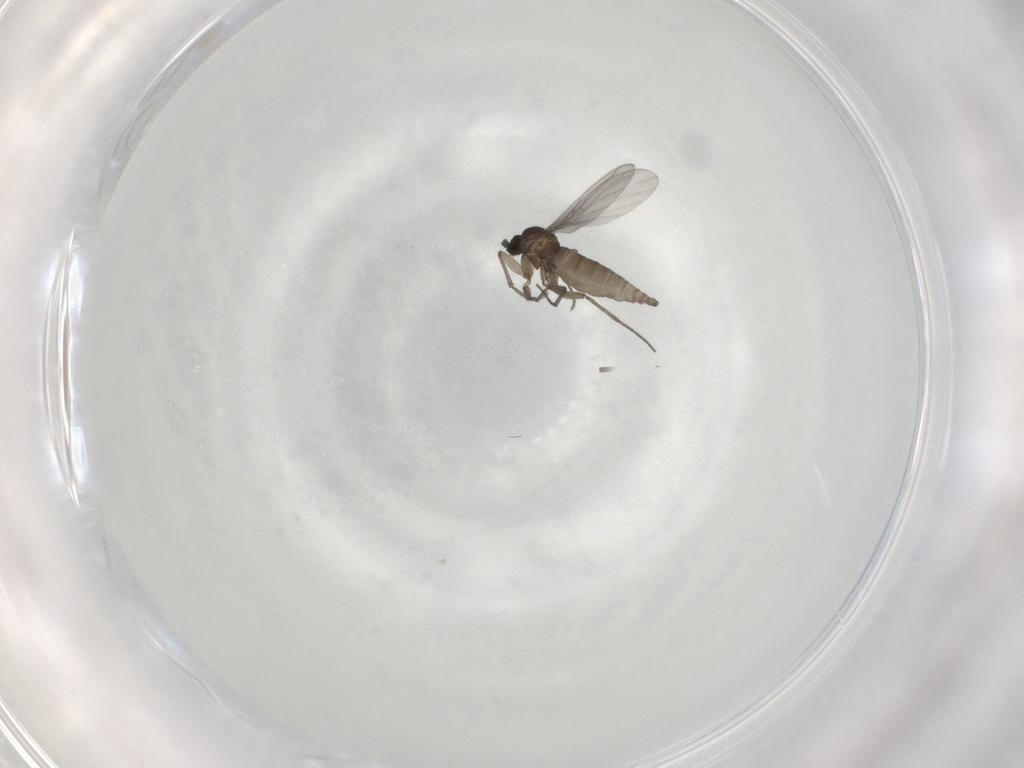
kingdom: Animalia
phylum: Arthropoda
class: Insecta
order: Diptera
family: Sciaridae
